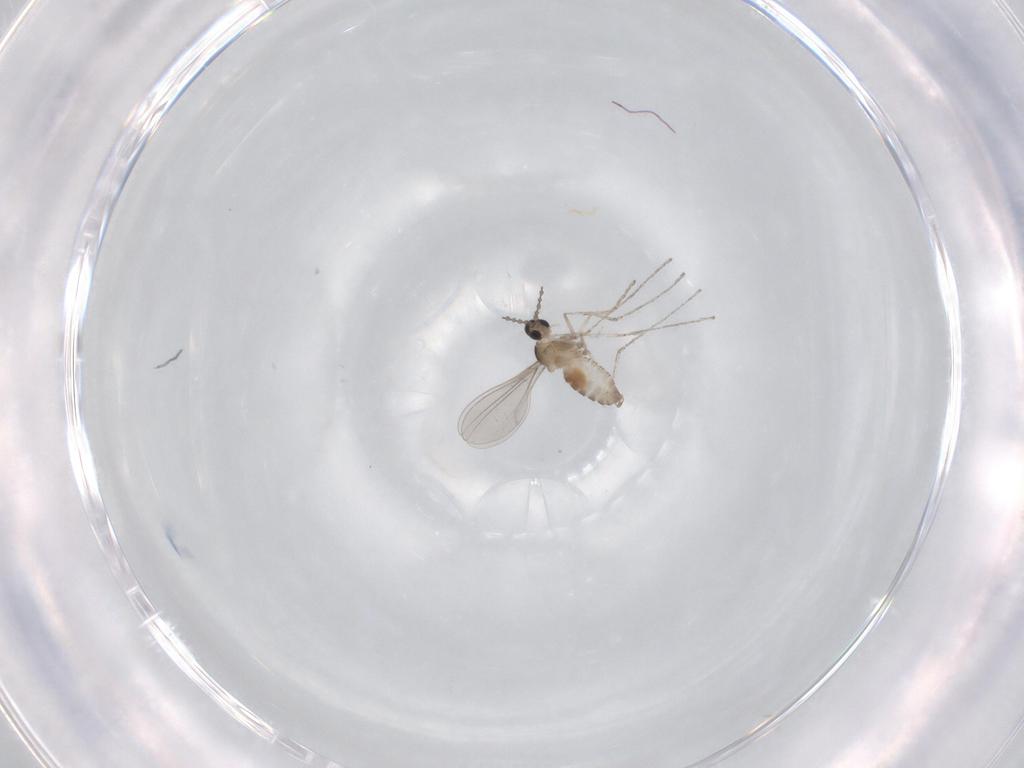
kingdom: Animalia
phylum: Arthropoda
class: Insecta
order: Diptera
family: Cecidomyiidae
